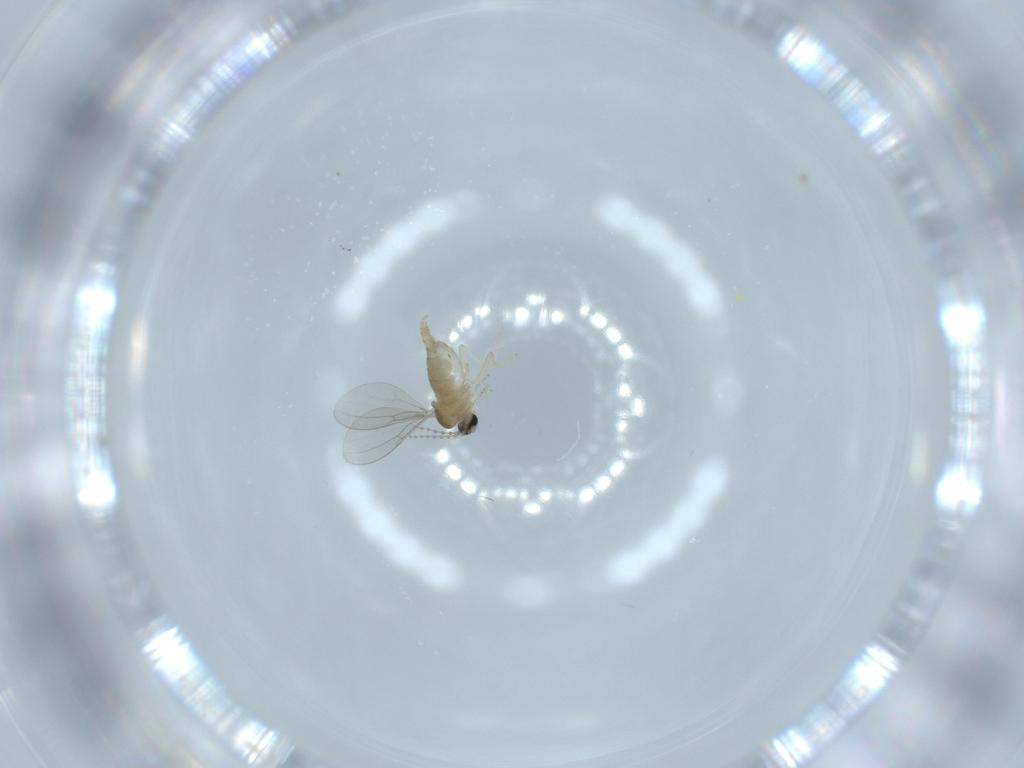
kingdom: Animalia
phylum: Arthropoda
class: Insecta
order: Diptera
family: Cecidomyiidae
